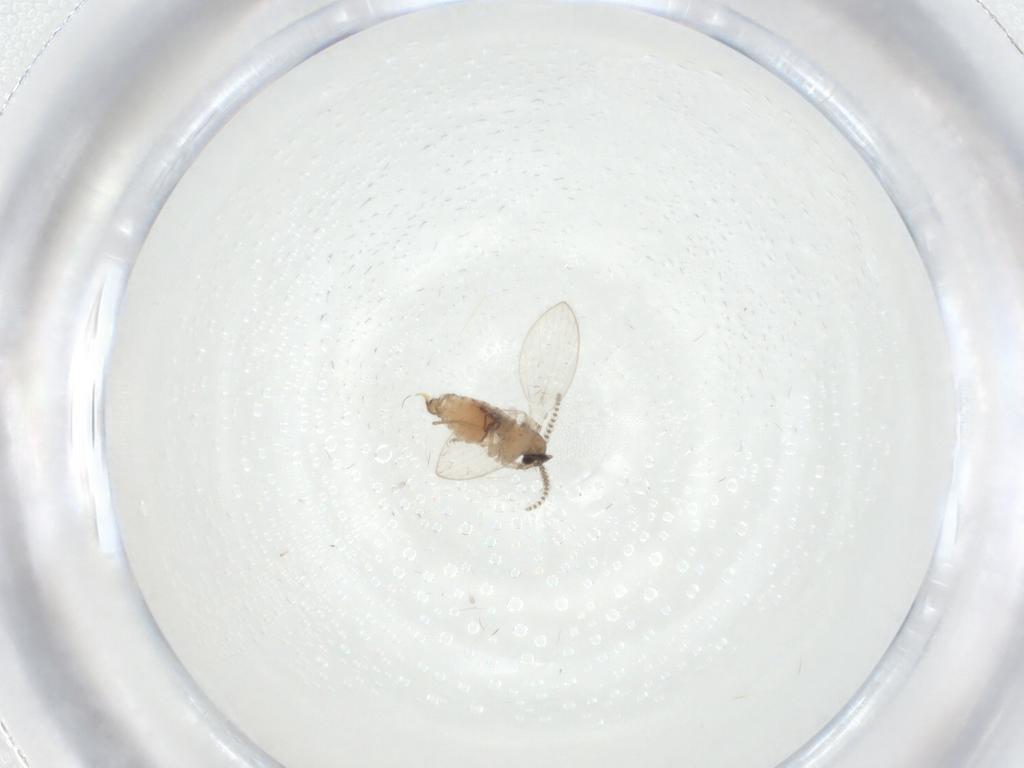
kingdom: Animalia
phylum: Arthropoda
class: Insecta
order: Diptera
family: Psychodidae
